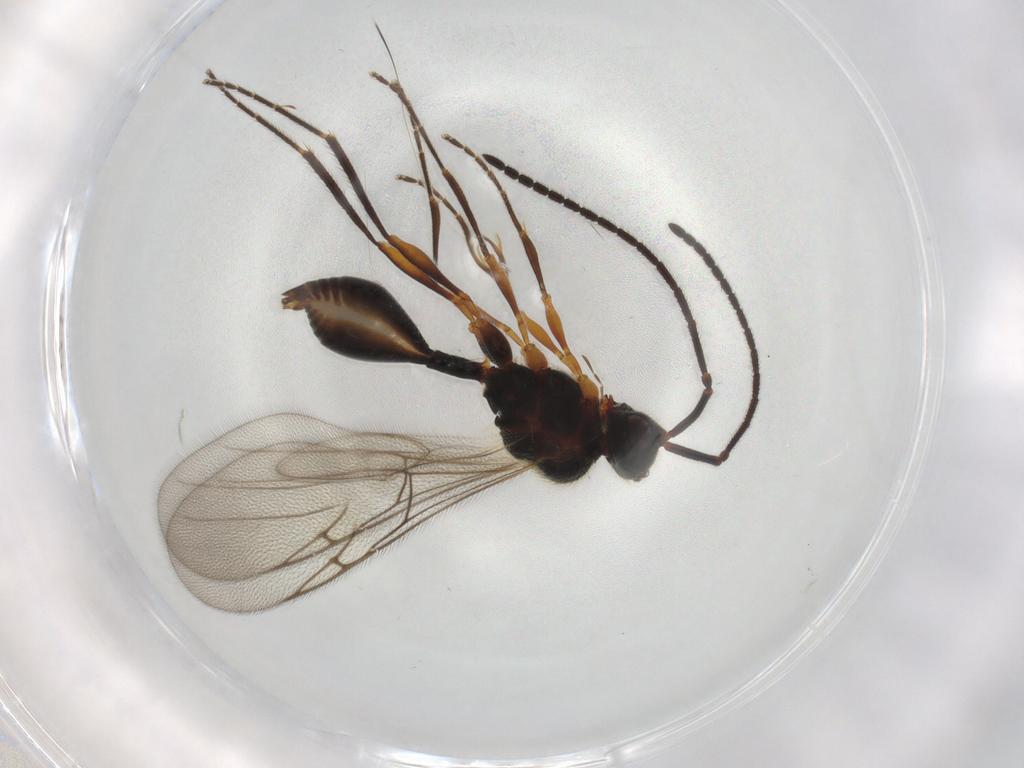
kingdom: Animalia
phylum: Arthropoda
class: Insecta
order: Hymenoptera
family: Diapriidae
